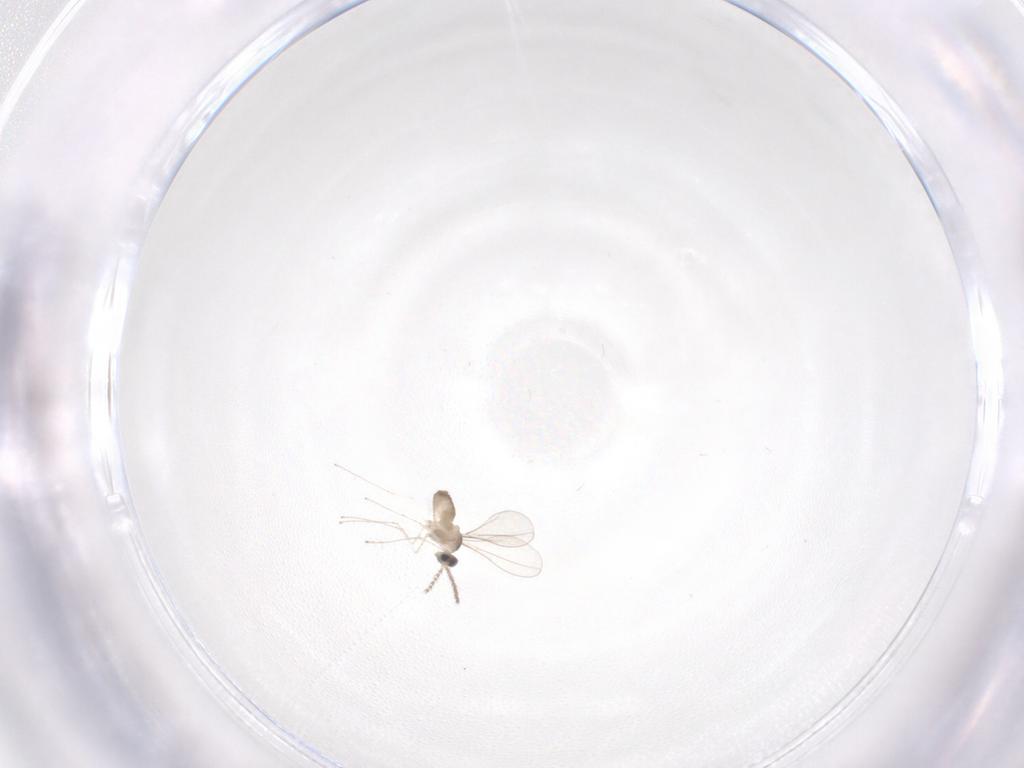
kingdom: Animalia
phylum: Arthropoda
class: Insecta
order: Diptera
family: Cecidomyiidae
